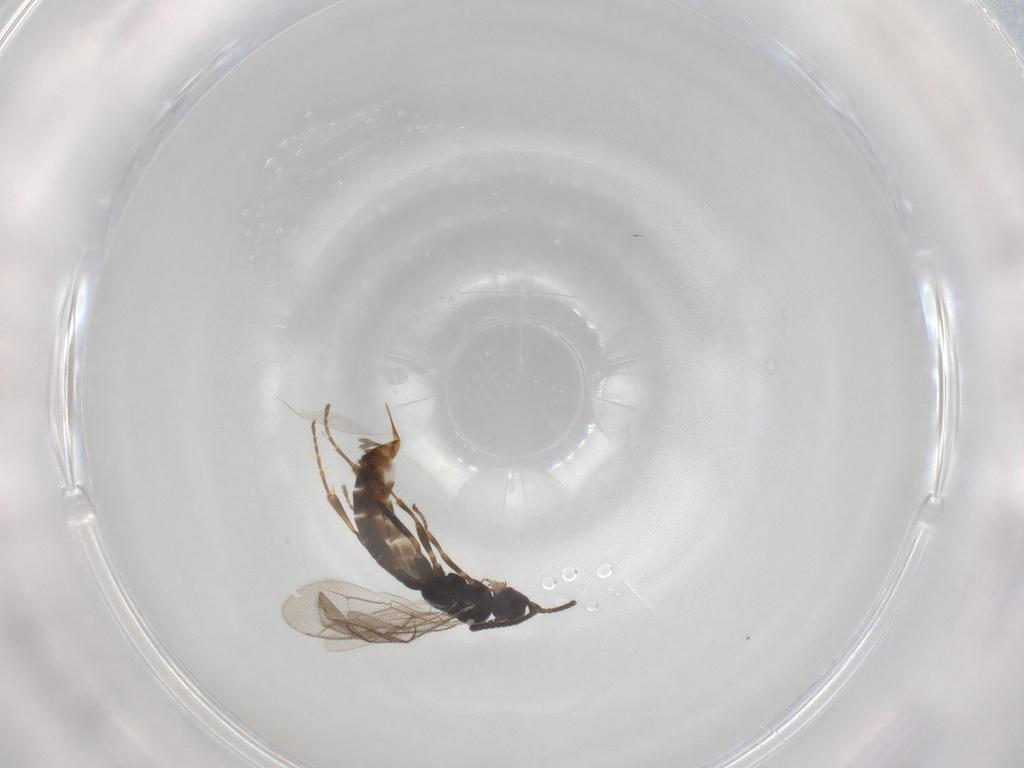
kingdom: Animalia
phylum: Arthropoda
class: Insecta
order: Hymenoptera
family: Ichneumonidae
